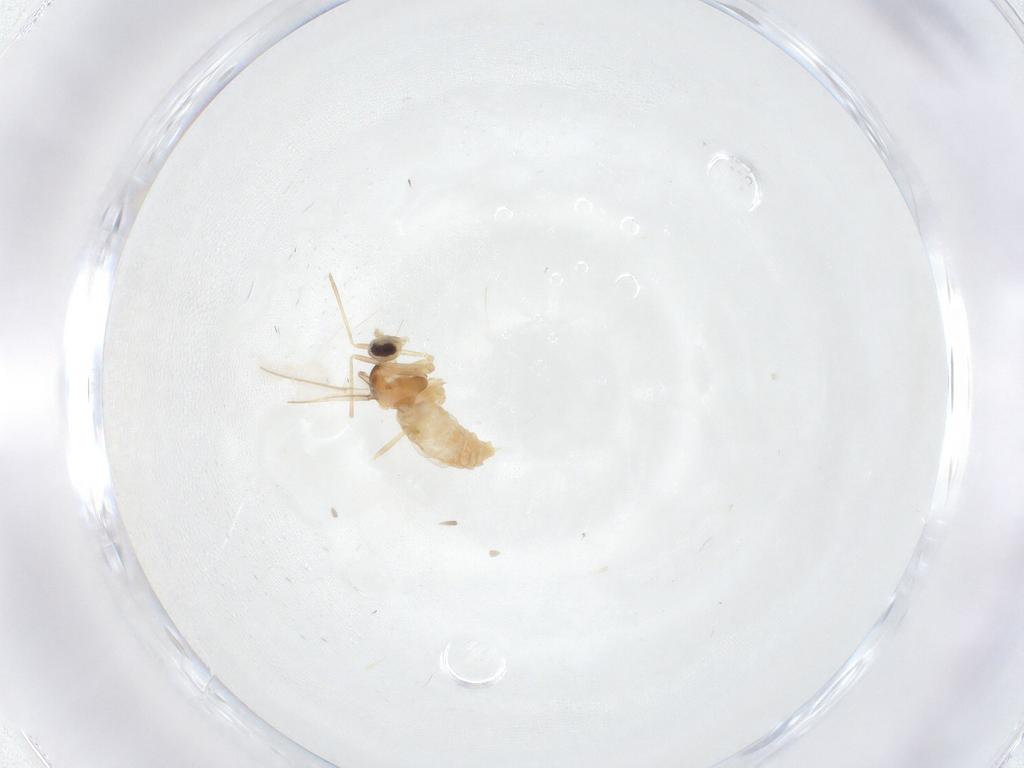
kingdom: Animalia
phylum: Arthropoda
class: Insecta
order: Diptera
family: Cecidomyiidae
